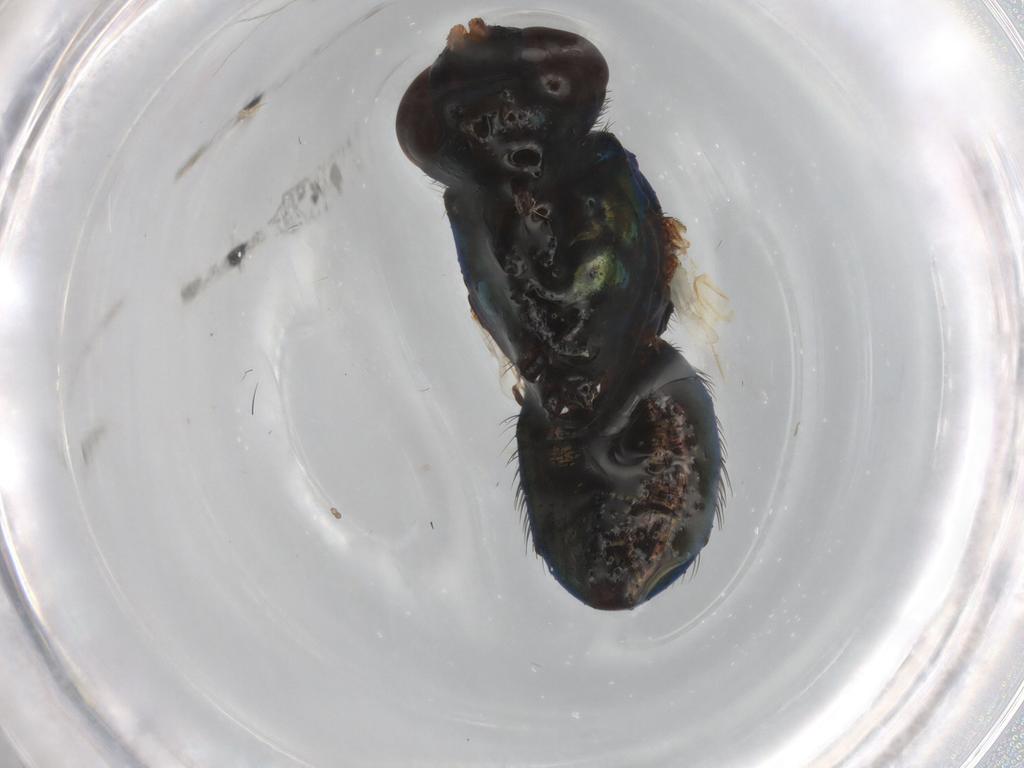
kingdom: Animalia
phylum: Arthropoda
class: Insecta
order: Diptera
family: Tachinidae
